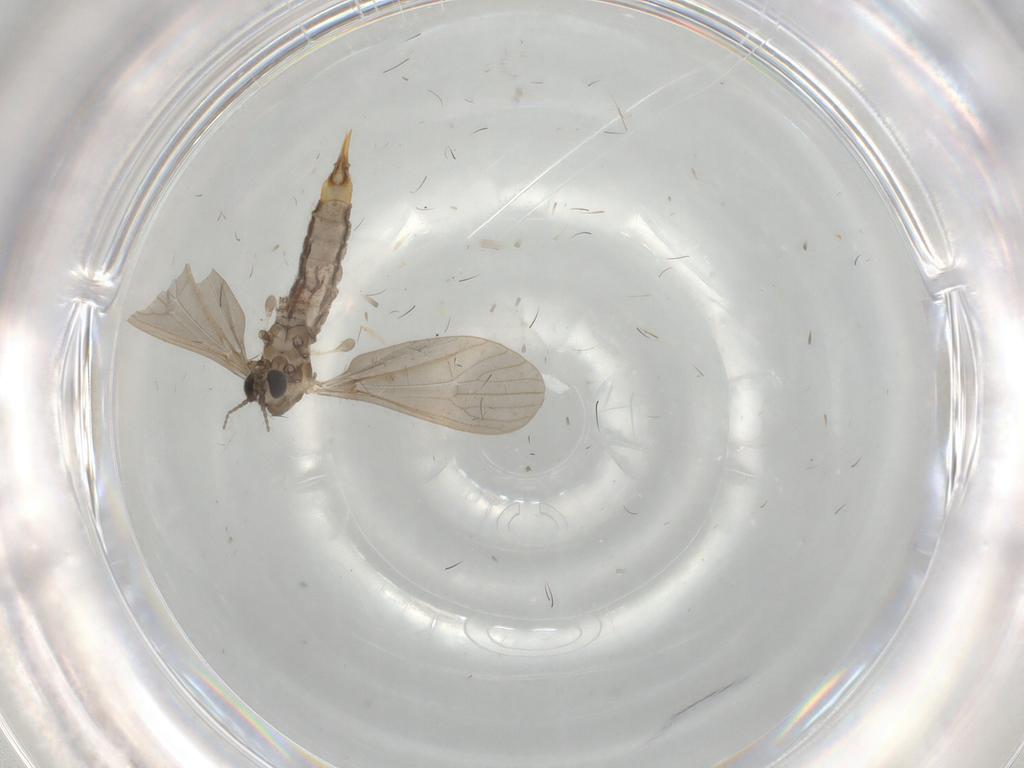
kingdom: Animalia
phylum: Arthropoda
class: Insecta
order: Diptera
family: Limoniidae
